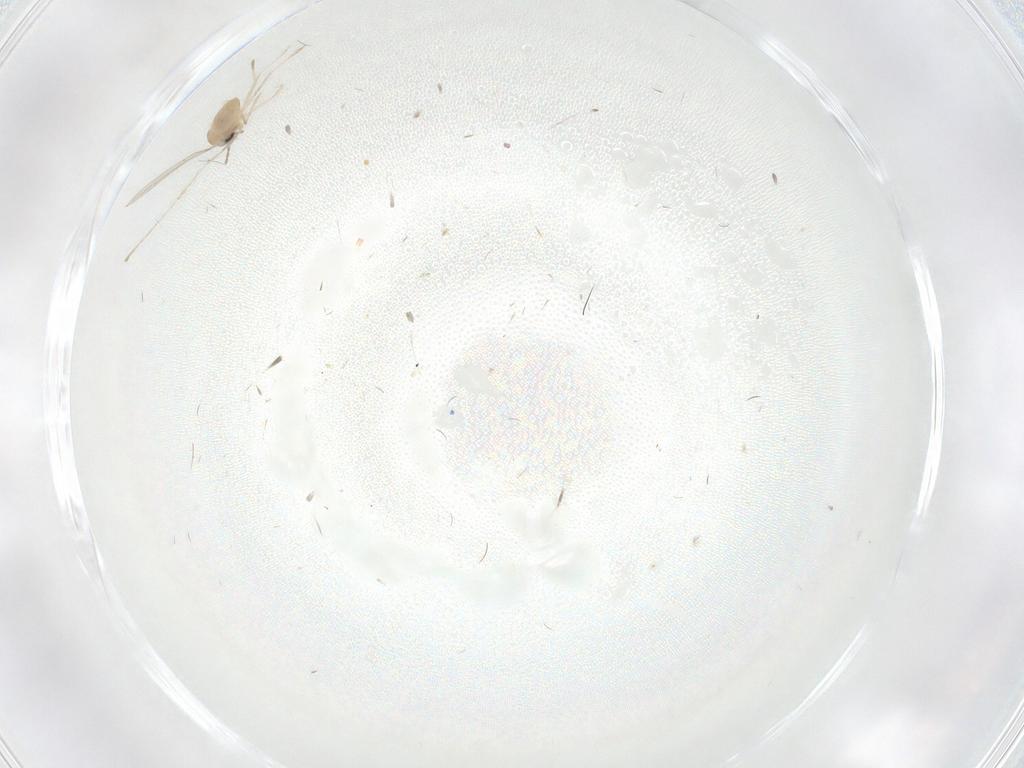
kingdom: Animalia
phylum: Arthropoda
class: Insecta
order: Diptera
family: Cecidomyiidae
